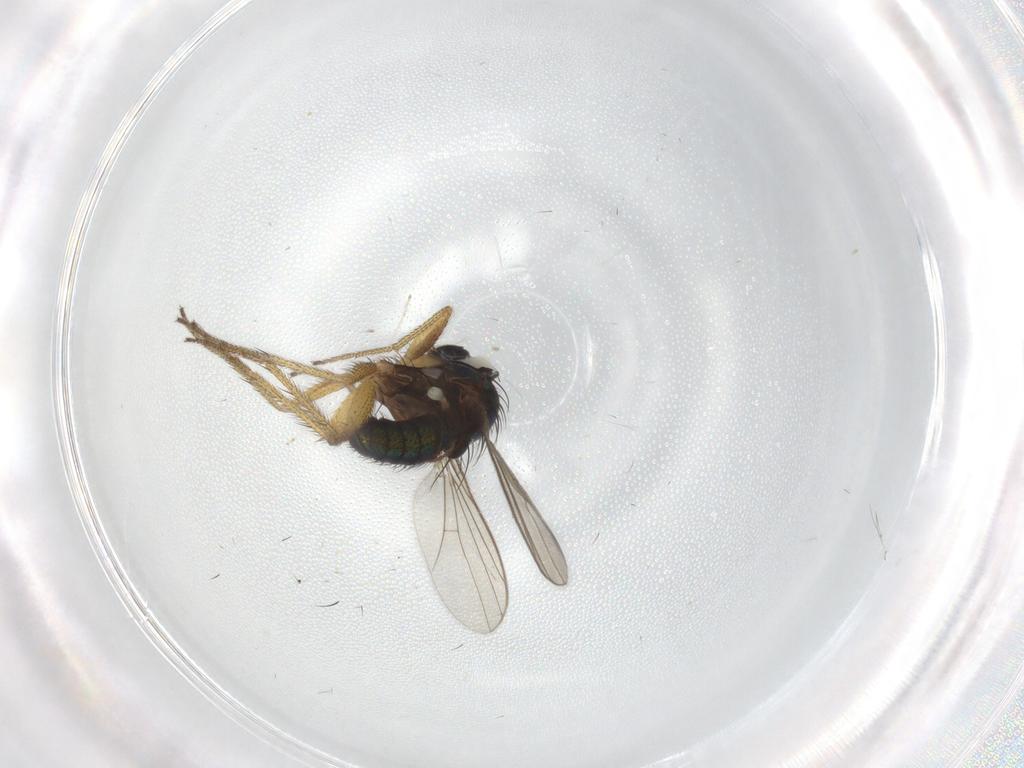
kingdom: Animalia
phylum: Arthropoda
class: Insecta
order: Diptera
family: Dolichopodidae
